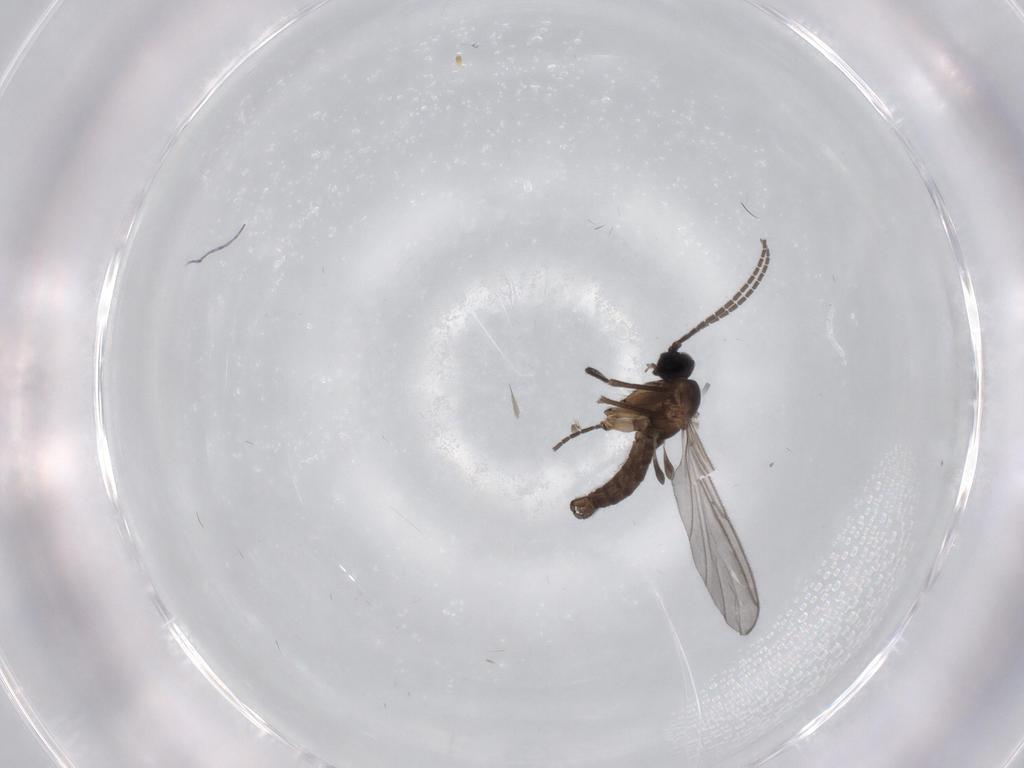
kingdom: Animalia
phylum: Arthropoda
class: Insecta
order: Diptera
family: Sciaridae
